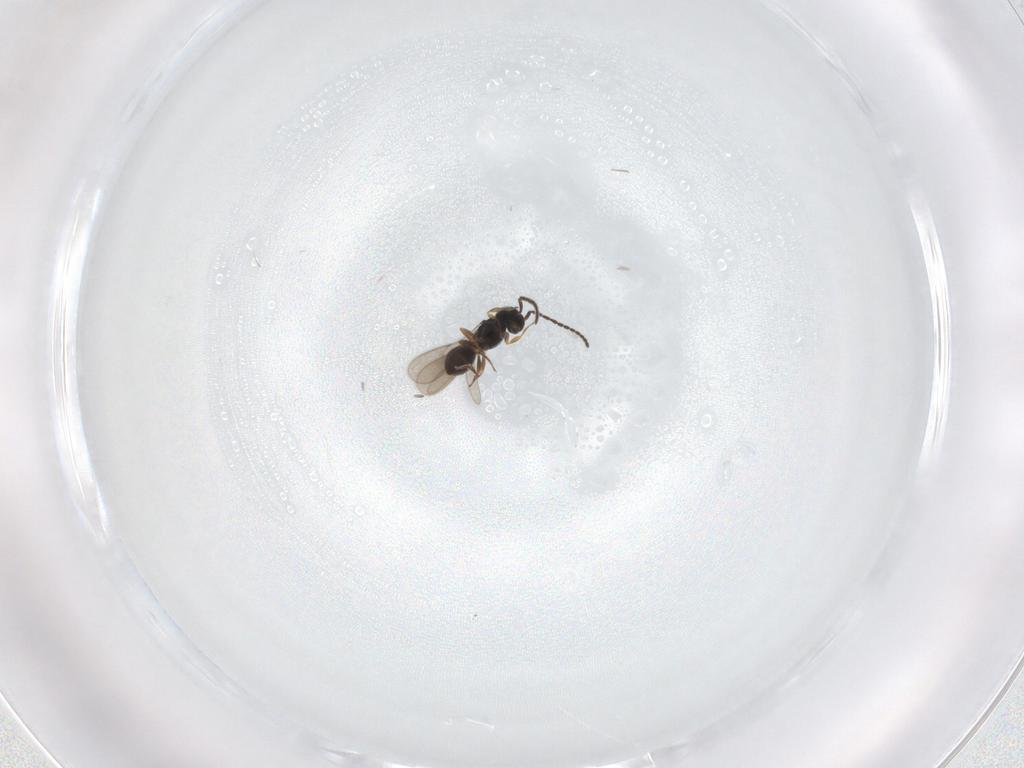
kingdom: Animalia
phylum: Arthropoda
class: Insecta
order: Hymenoptera
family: Scelionidae
